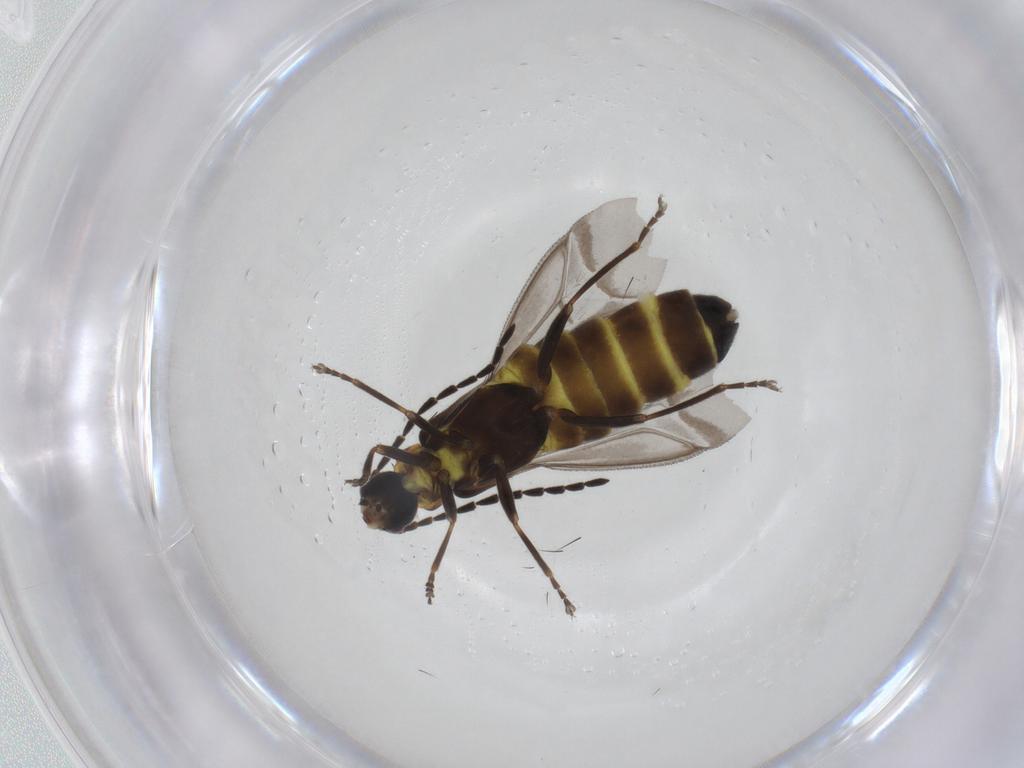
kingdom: Animalia
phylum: Arthropoda
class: Insecta
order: Coleoptera
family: Cantharidae
